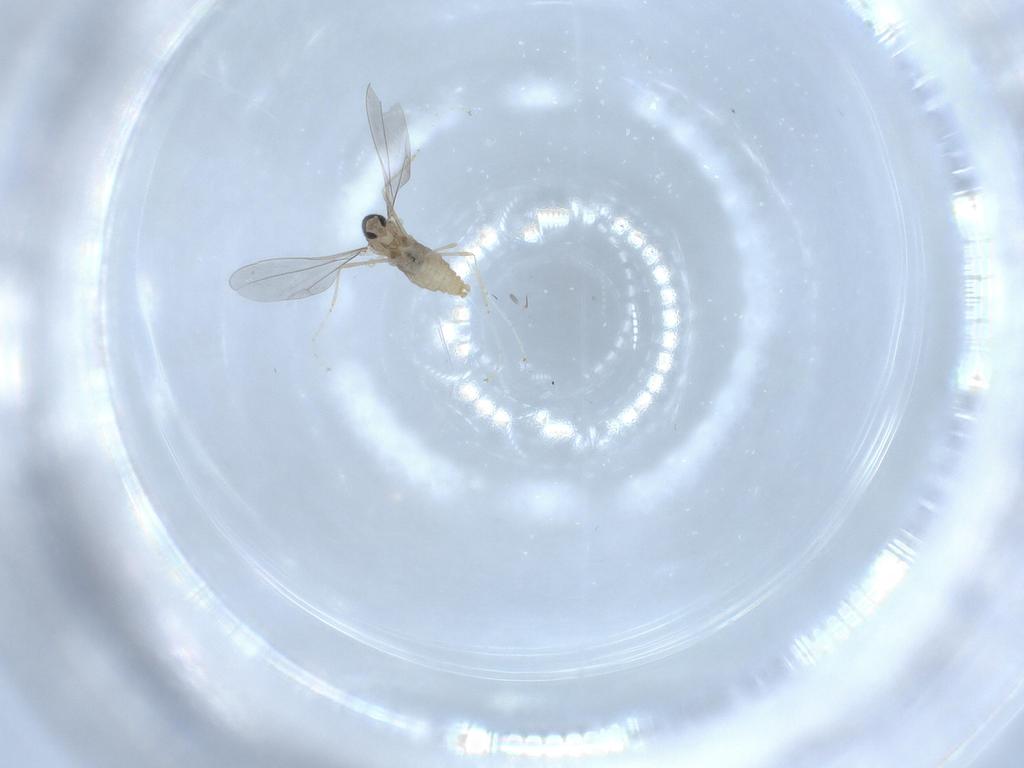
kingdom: Animalia
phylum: Arthropoda
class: Insecta
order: Diptera
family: Cecidomyiidae
